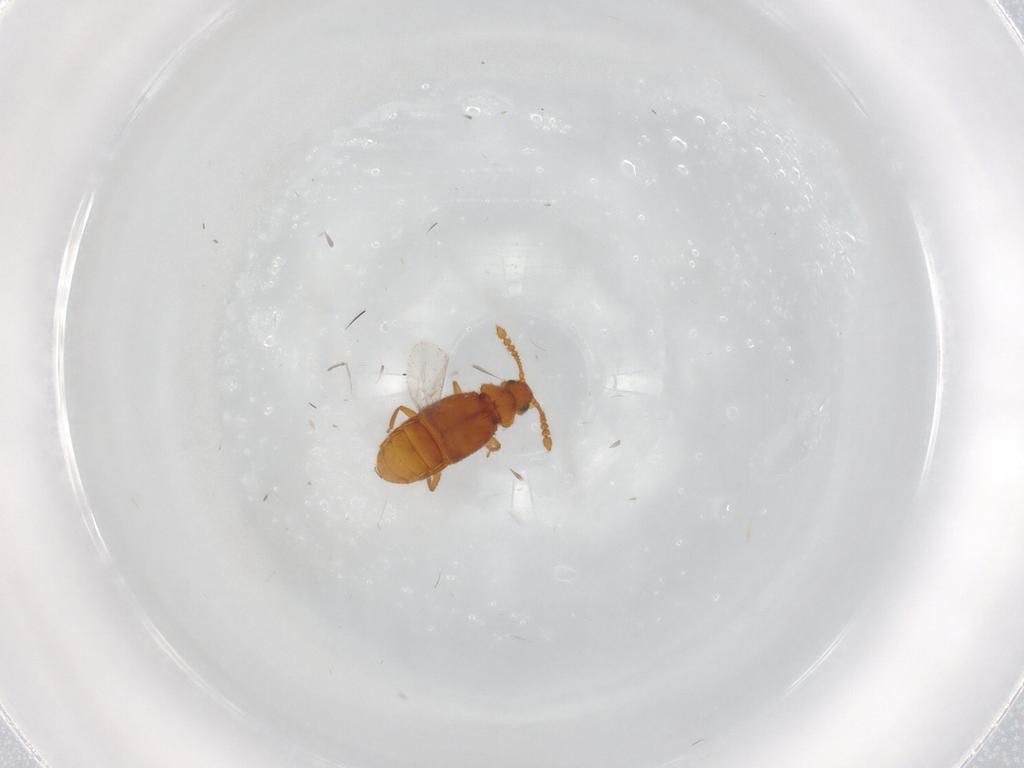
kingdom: Animalia
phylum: Arthropoda
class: Insecta
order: Coleoptera
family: Staphylinidae
